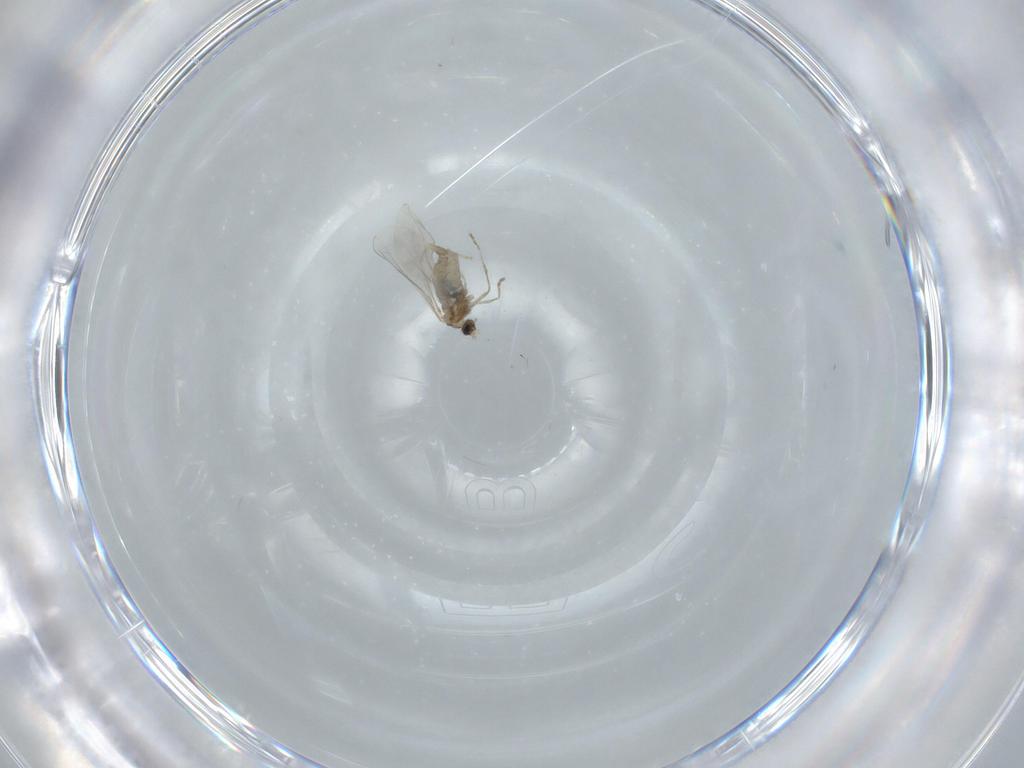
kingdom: Animalia
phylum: Arthropoda
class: Insecta
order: Diptera
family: Cecidomyiidae
